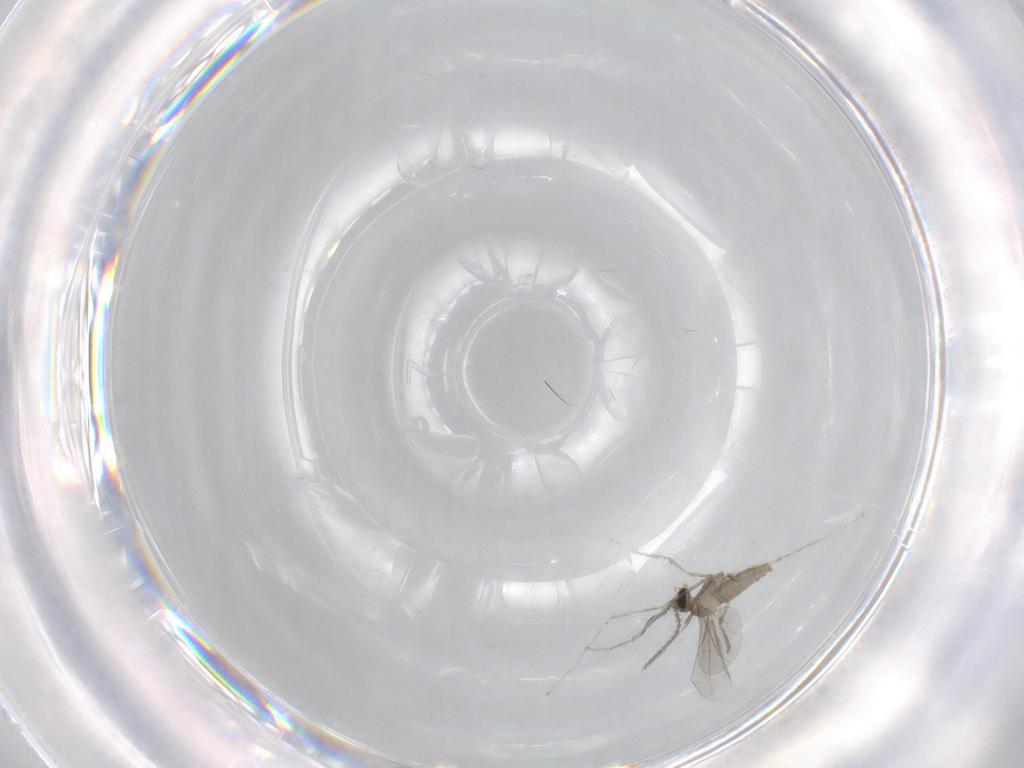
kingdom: Animalia
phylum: Arthropoda
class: Insecta
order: Diptera
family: Cecidomyiidae
